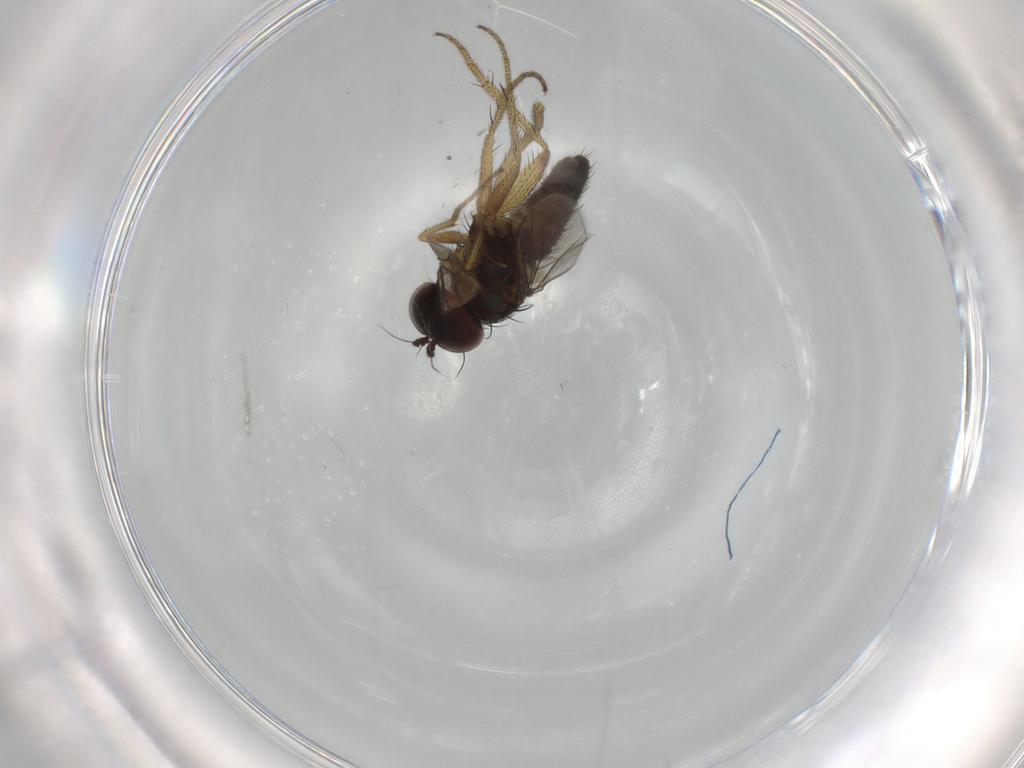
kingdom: Animalia
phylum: Arthropoda
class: Insecta
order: Diptera
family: Dolichopodidae
